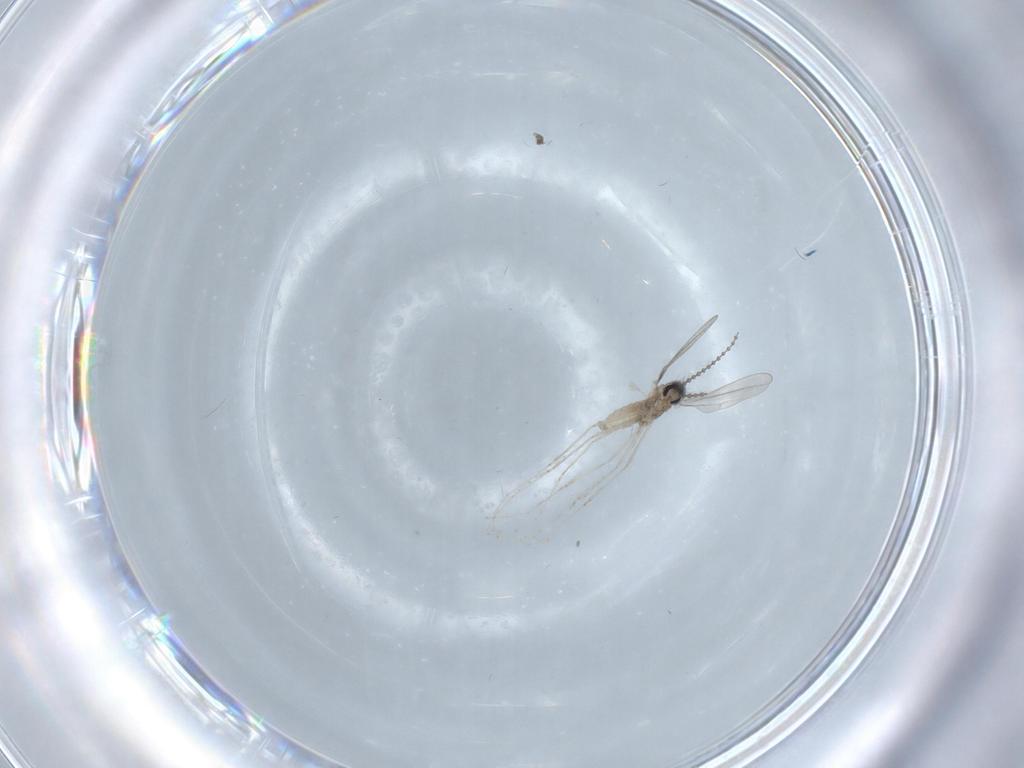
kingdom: Animalia
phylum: Arthropoda
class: Insecta
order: Diptera
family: Cecidomyiidae
